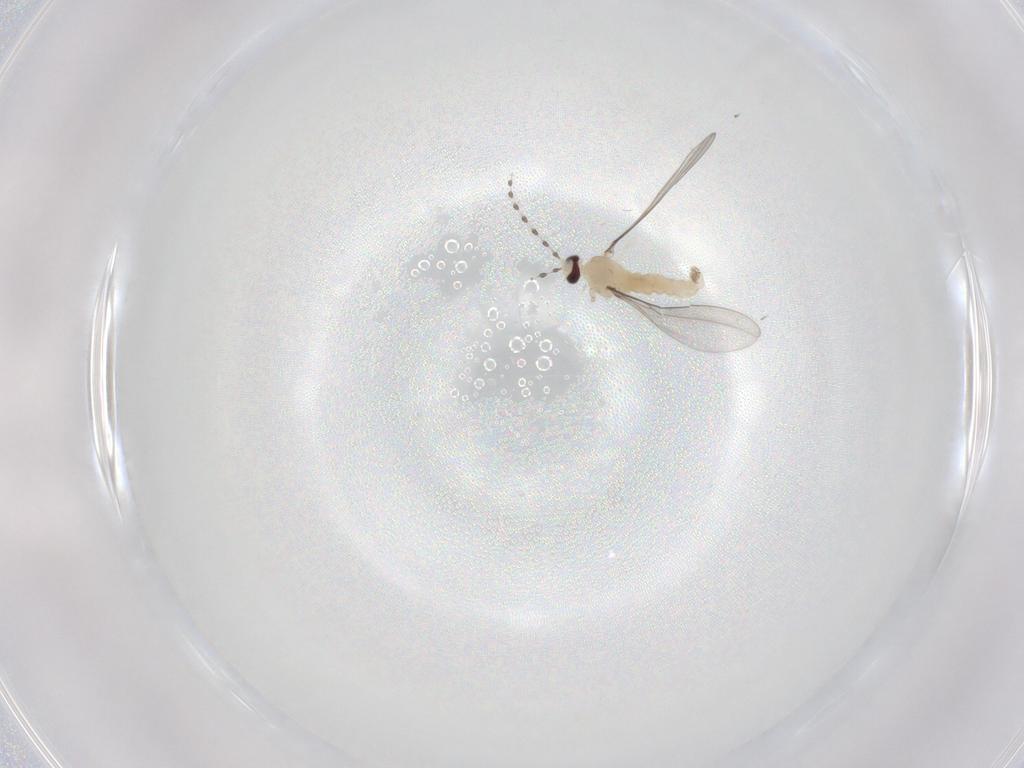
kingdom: Animalia
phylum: Arthropoda
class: Insecta
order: Diptera
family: Cecidomyiidae
